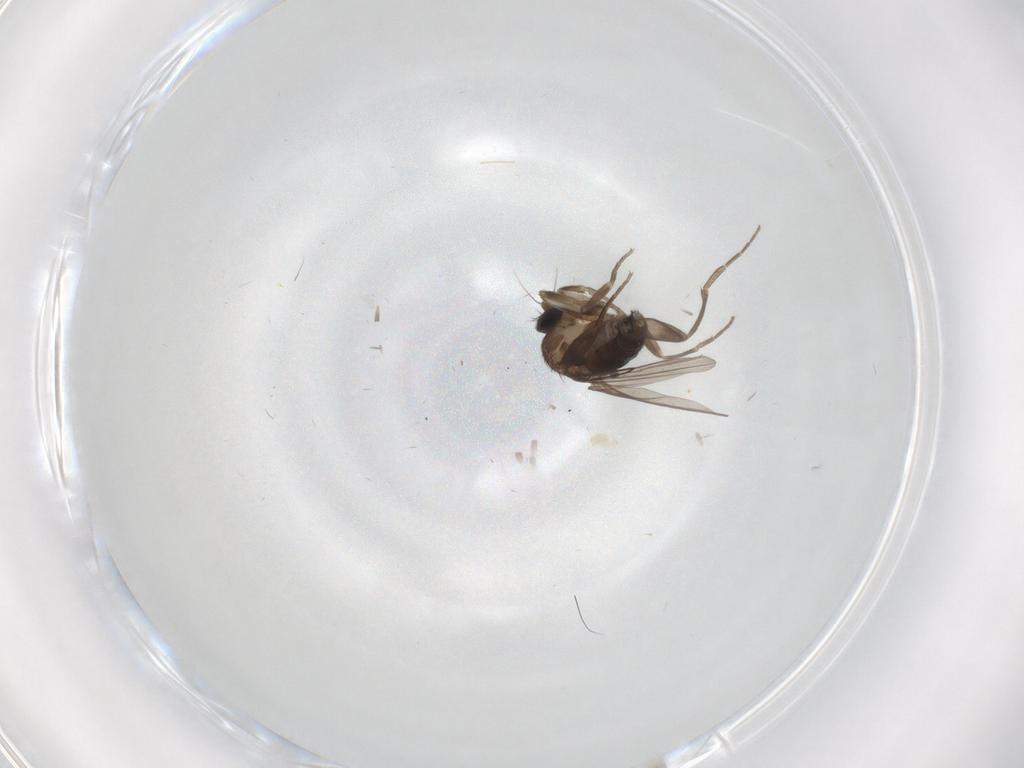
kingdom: Animalia
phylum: Arthropoda
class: Insecta
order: Diptera
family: Phoridae
